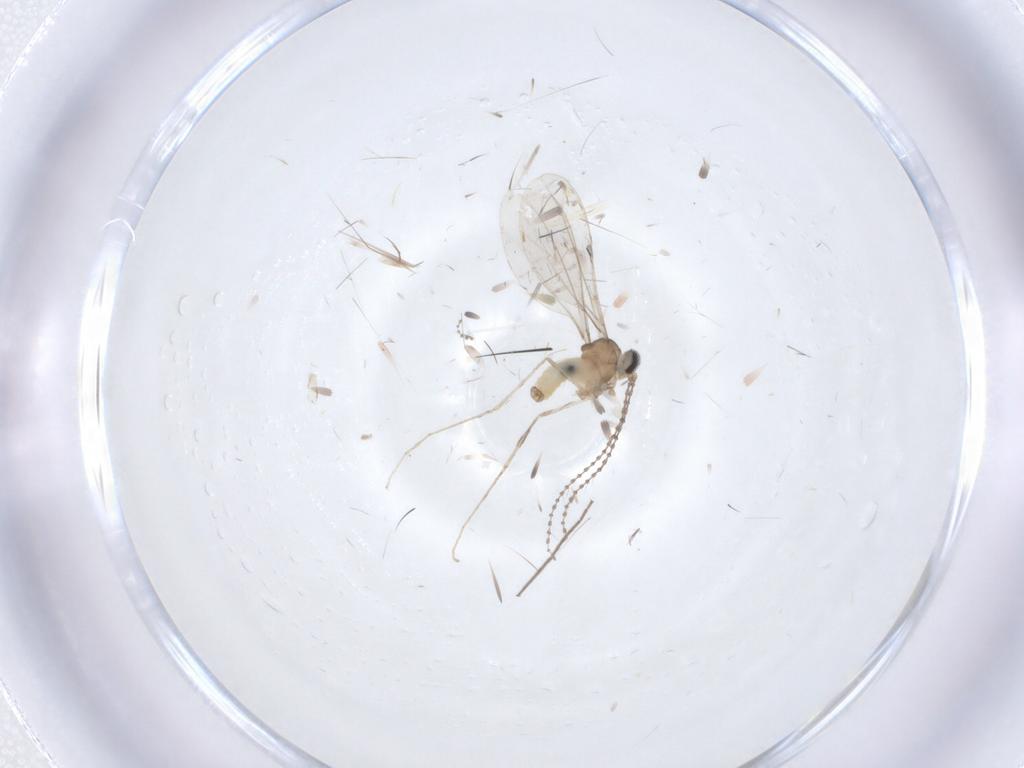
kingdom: Animalia
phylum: Arthropoda
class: Insecta
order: Diptera
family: Cecidomyiidae
